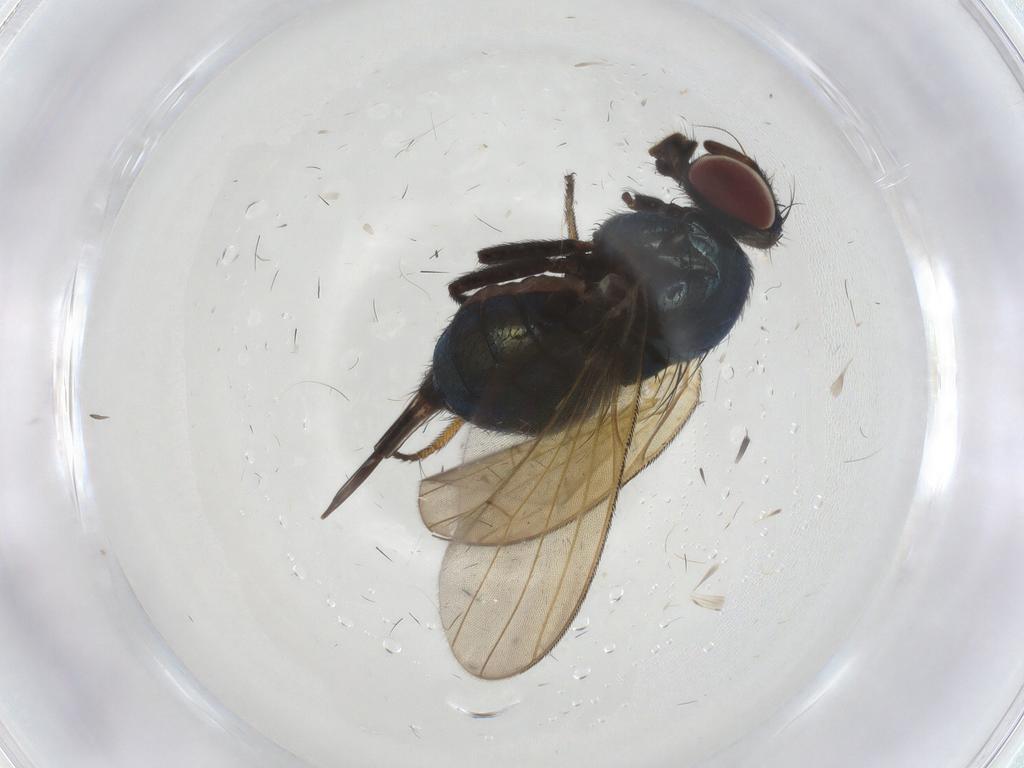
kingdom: Animalia
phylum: Arthropoda
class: Insecta
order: Diptera
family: Lonchaeidae
